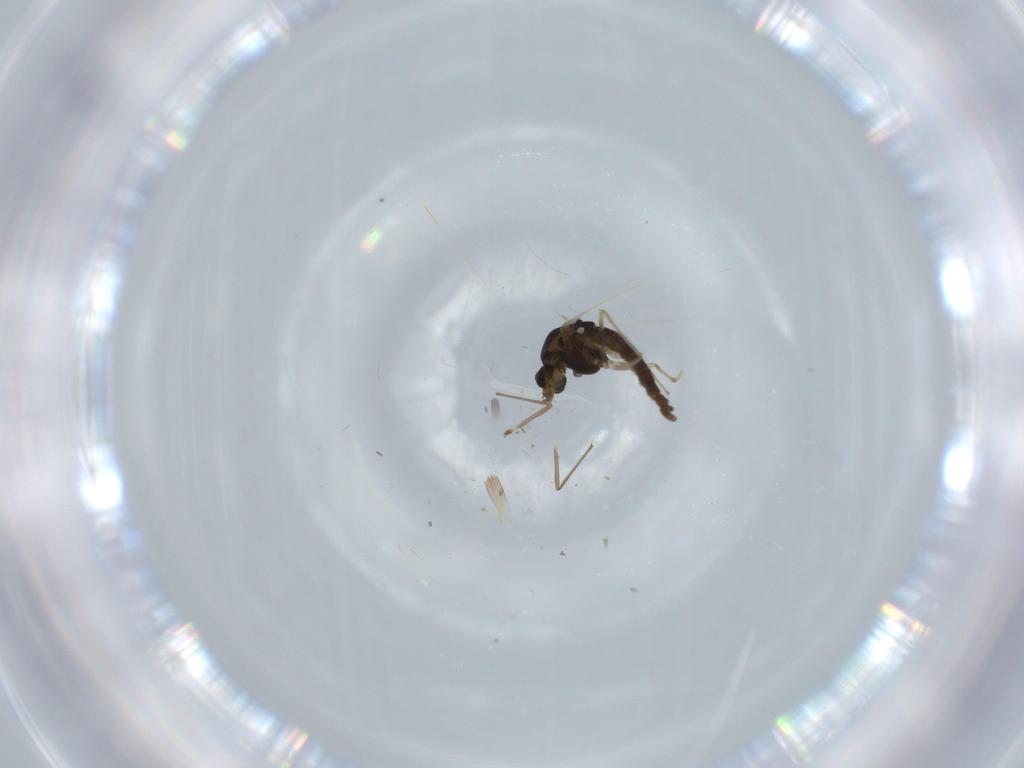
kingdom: Animalia
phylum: Arthropoda
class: Insecta
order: Diptera
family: Chironomidae
